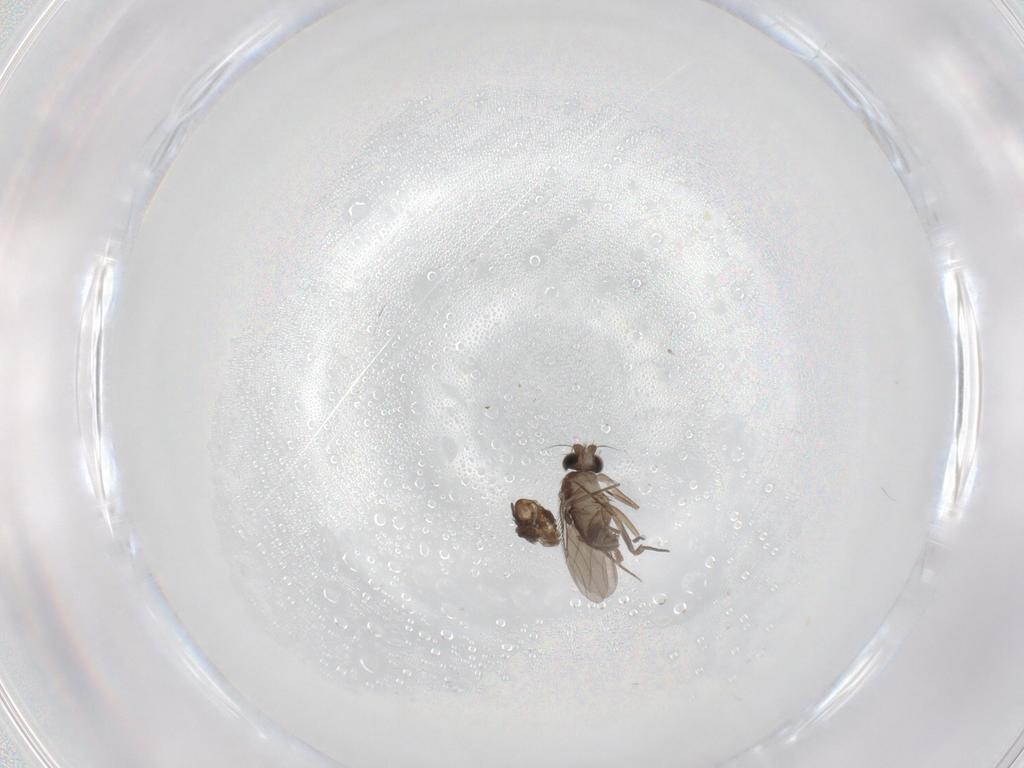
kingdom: Animalia
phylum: Arthropoda
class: Insecta
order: Diptera
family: Phoridae
